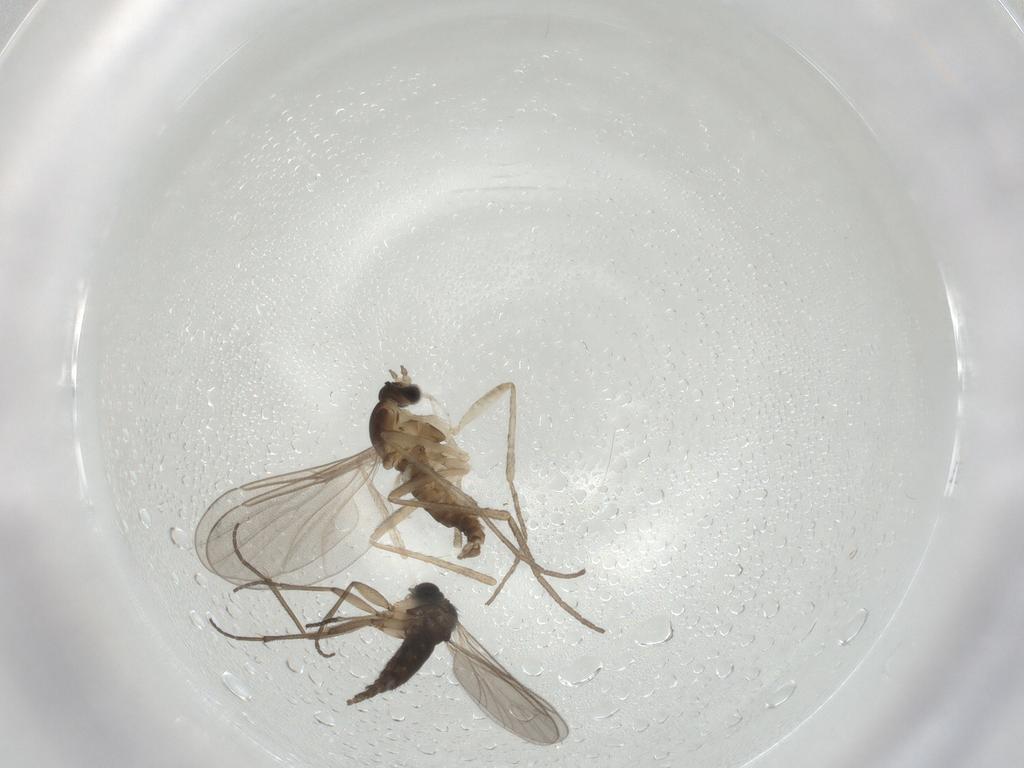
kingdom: Animalia
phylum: Arthropoda
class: Insecta
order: Diptera
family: Cecidomyiidae
